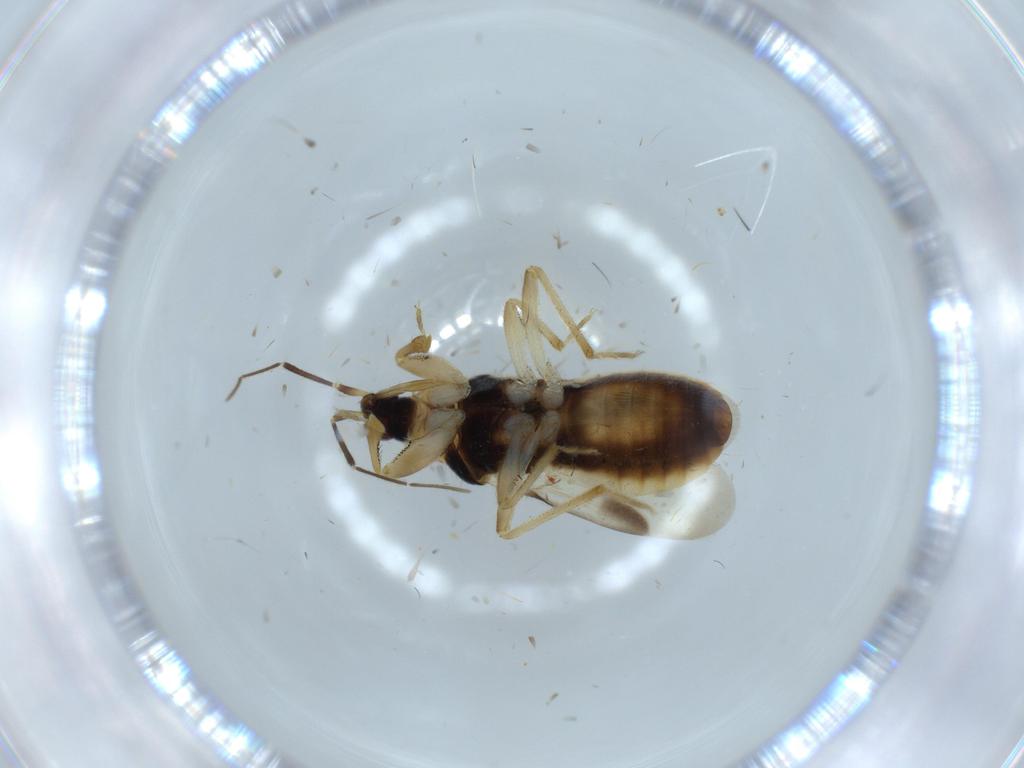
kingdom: Animalia
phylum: Arthropoda
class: Insecta
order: Hemiptera
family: Nabidae
